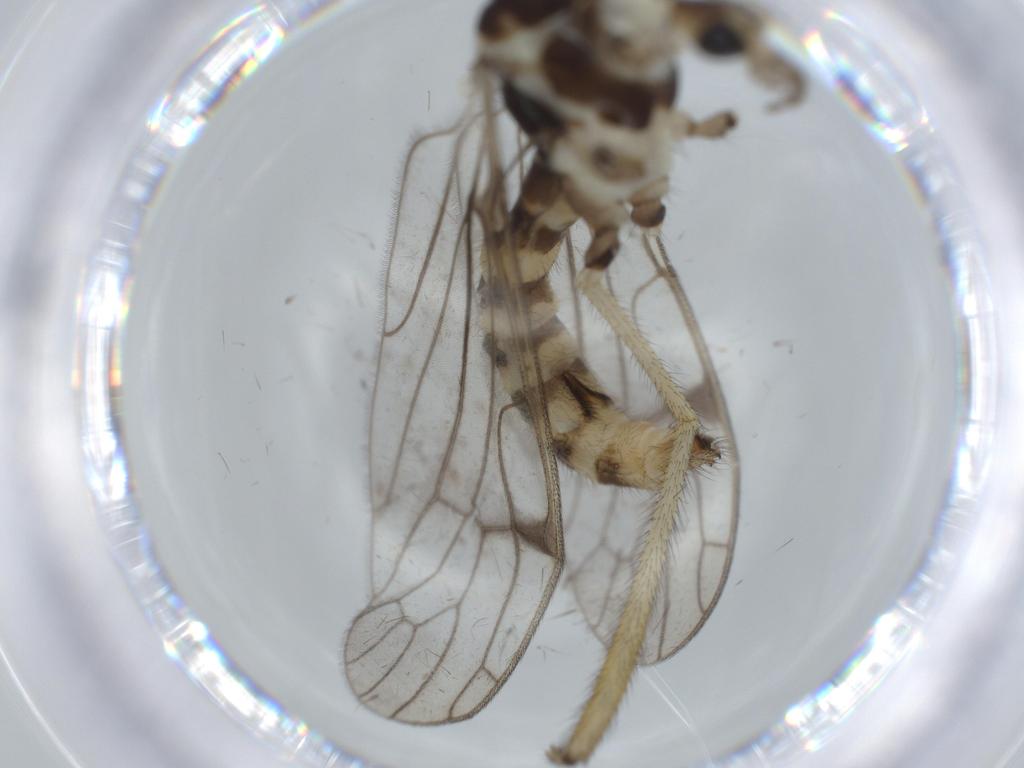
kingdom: Animalia
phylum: Arthropoda
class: Insecta
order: Diptera
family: Limoniidae
